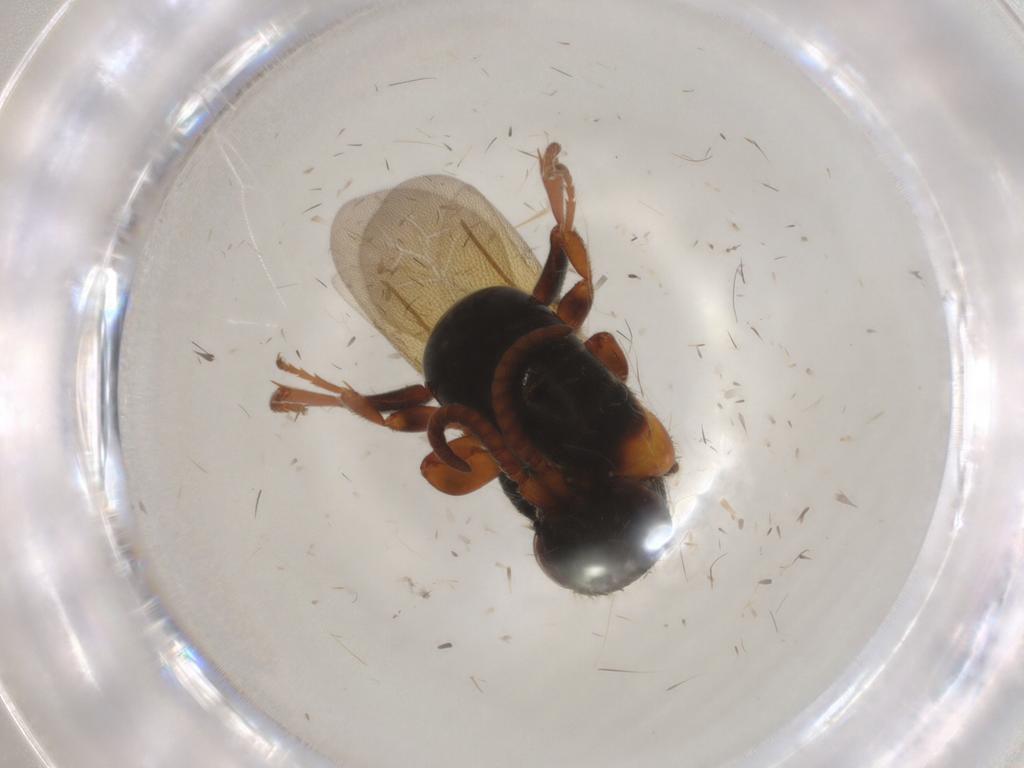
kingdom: Animalia
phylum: Arthropoda
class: Insecta
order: Hymenoptera
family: Bethylidae
